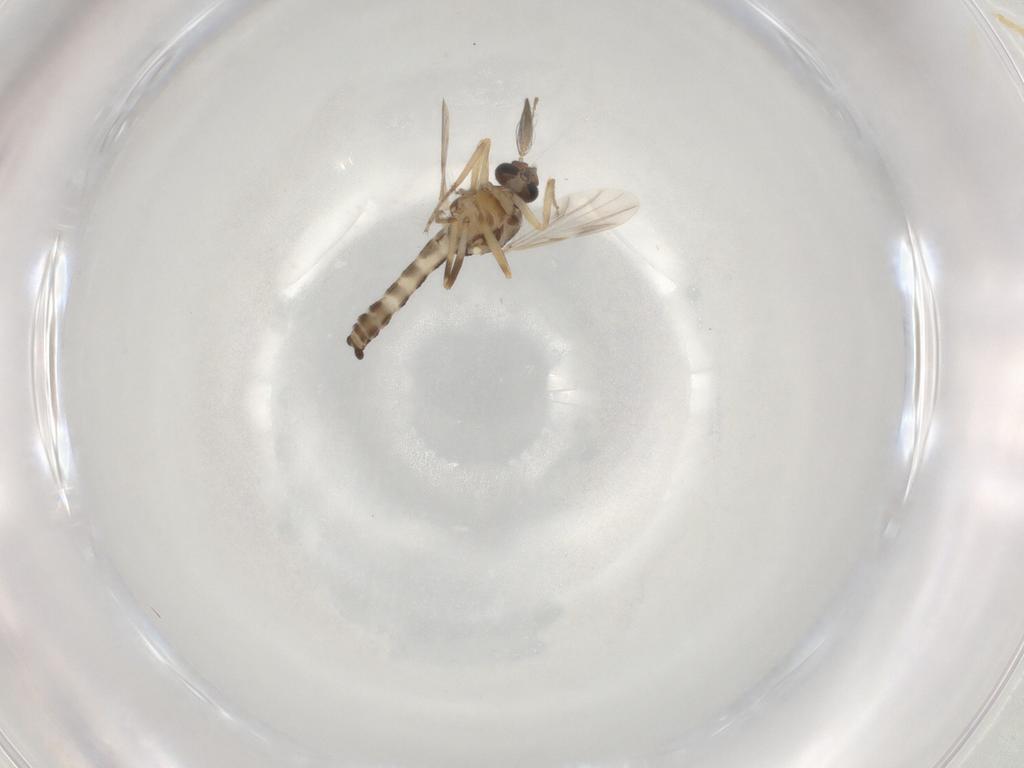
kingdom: Animalia
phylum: Arthropoda
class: Insecta
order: Diptera
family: Ceratopogonidae
